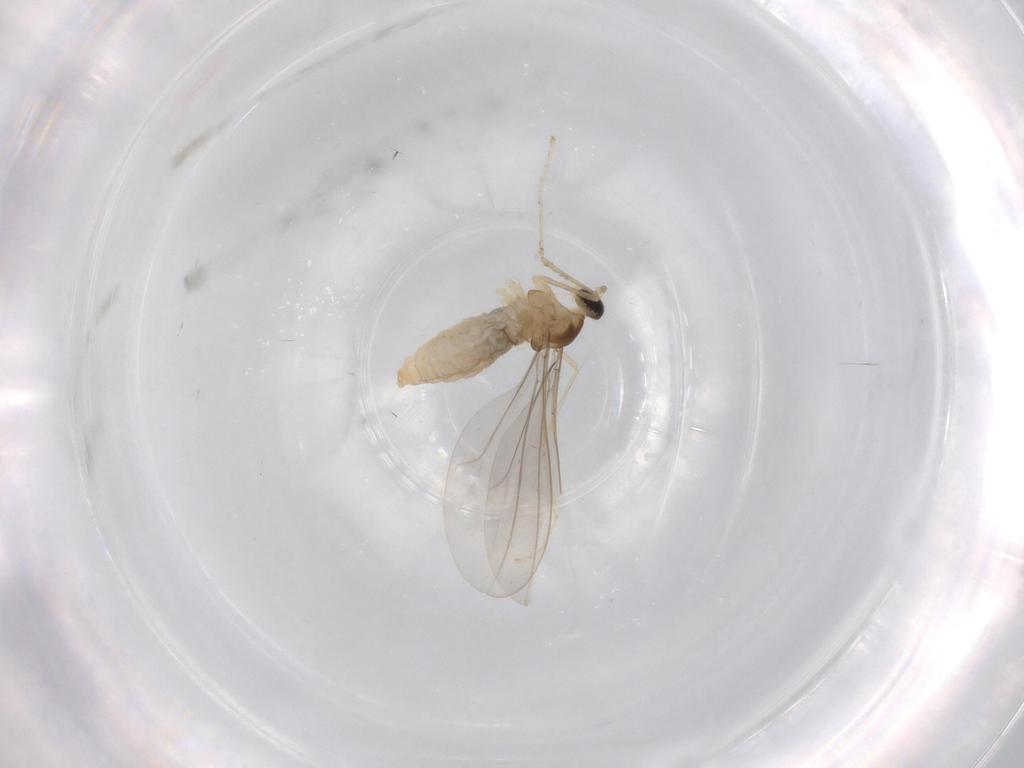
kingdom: Animalia
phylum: Arthropoda
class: Insecta
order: Diptera
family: Cecidomyiidae
